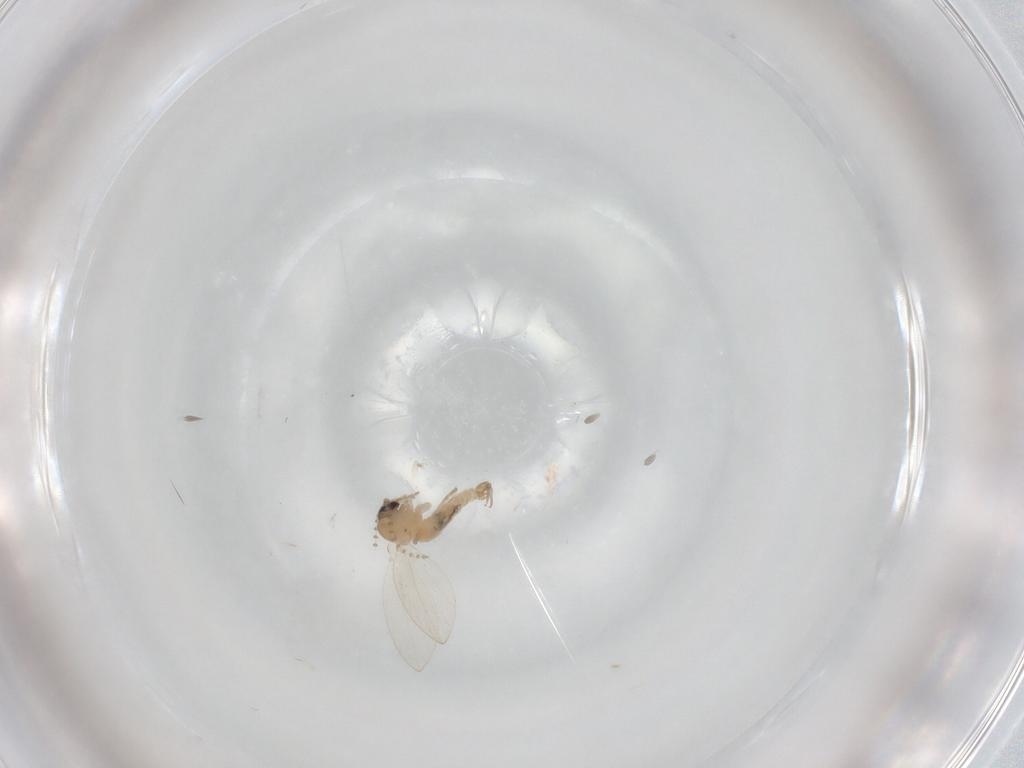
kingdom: Animalia
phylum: Arthropoda
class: Insecta
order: Diptera
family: Psychodidae
